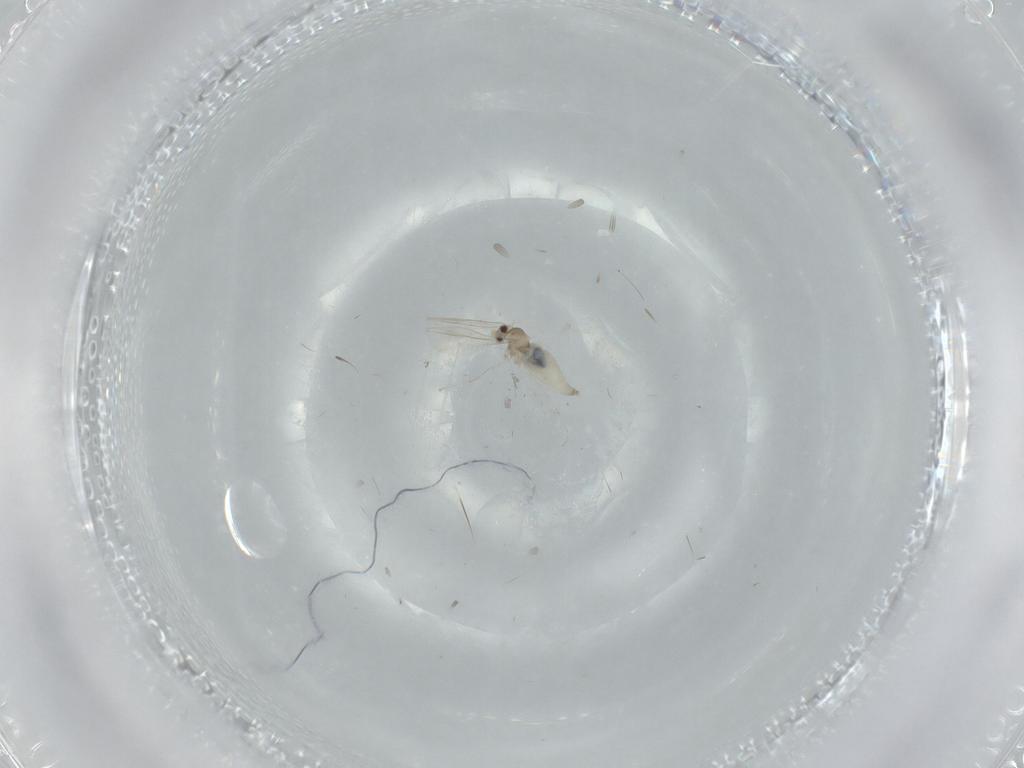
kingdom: Animalia
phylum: Arthropoda
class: Insecta
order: Diptera
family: Cecidomyiidae
